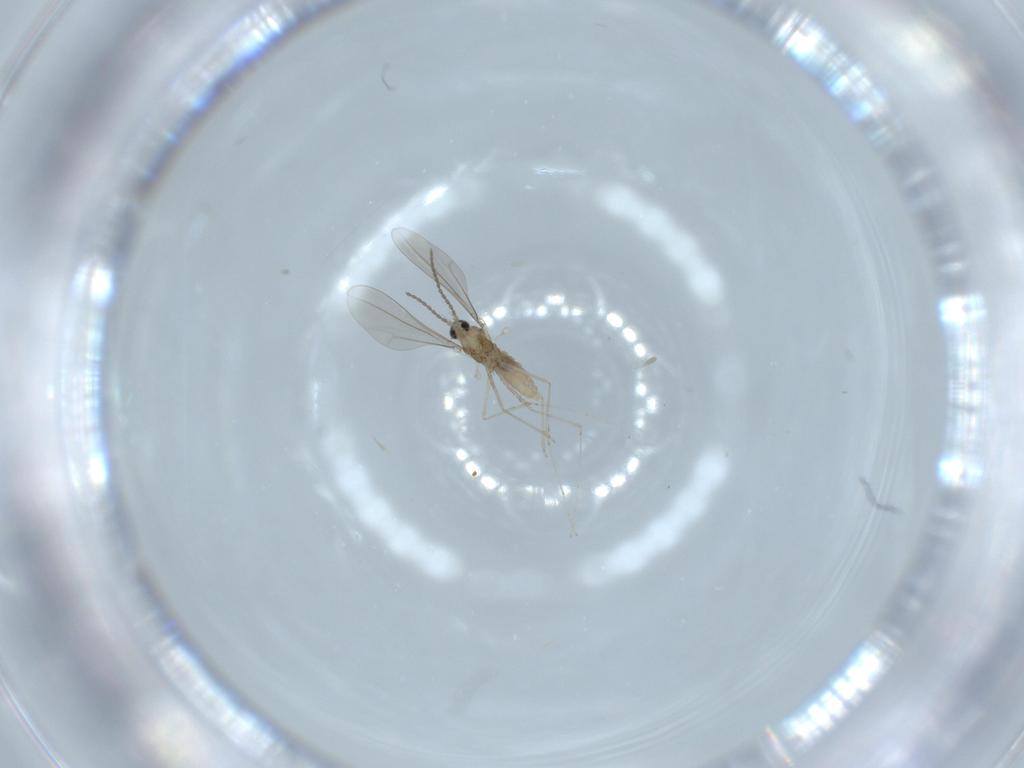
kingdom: Animalia
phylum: Arthropoda
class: Insecta
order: Diptera
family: Cecidomyiidae
